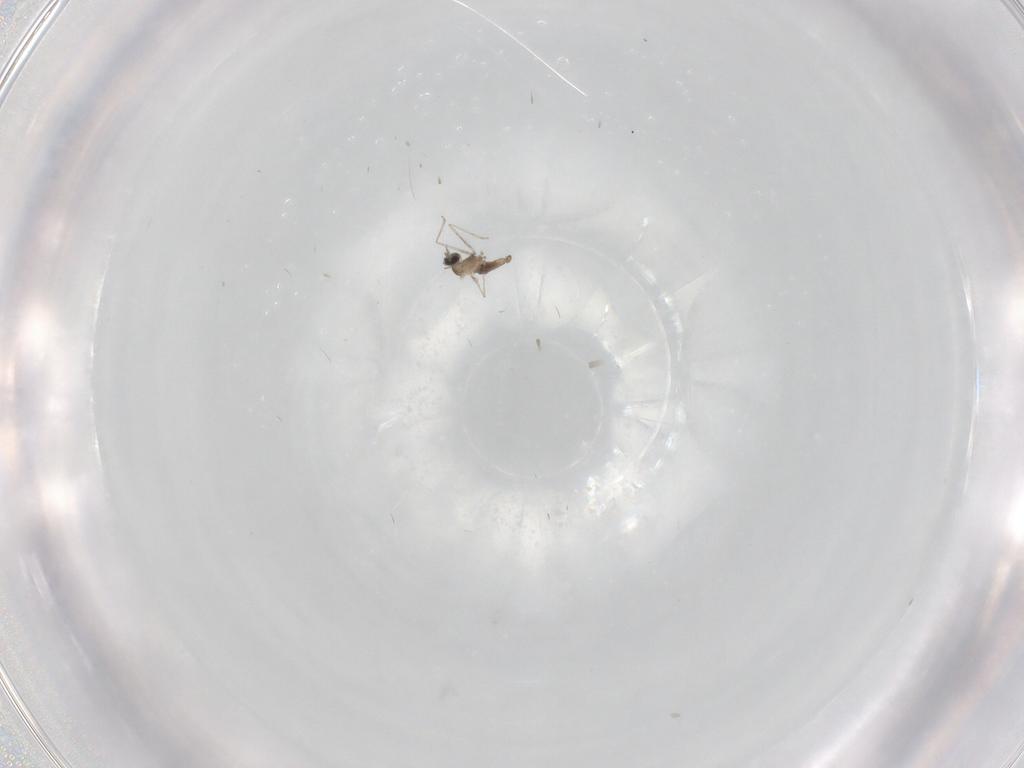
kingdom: Animalia
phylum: Arthropoda
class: Insecta
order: Diptera
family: Cecidomyiidae
